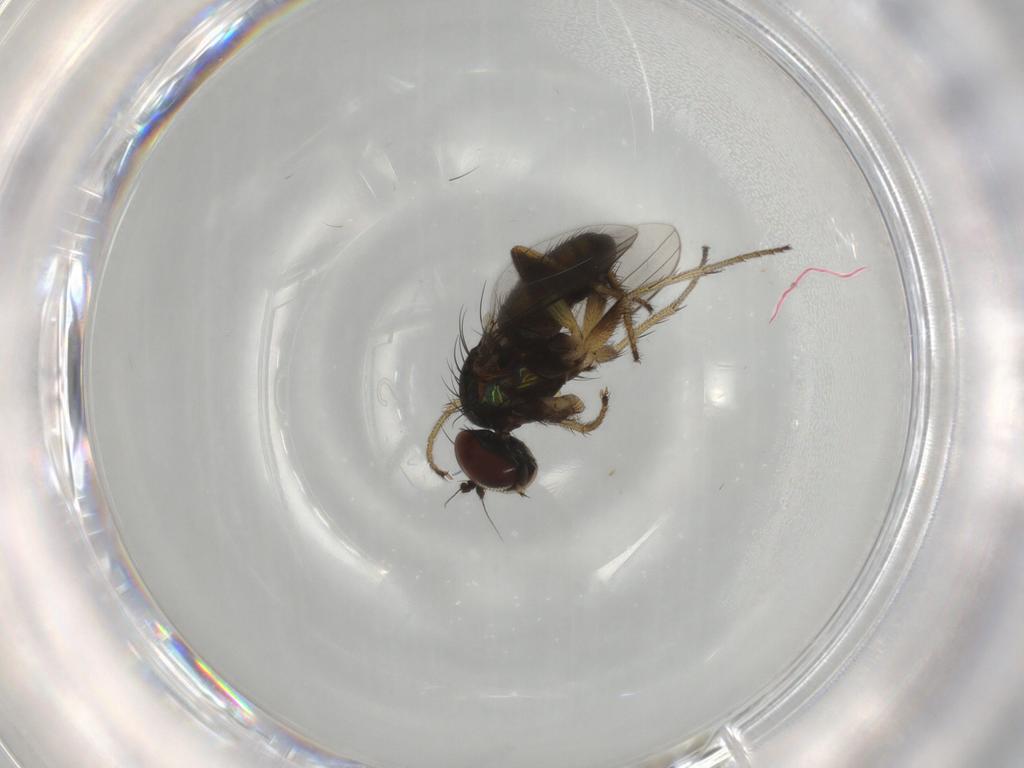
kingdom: Animalia
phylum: Arthropoda
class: Insecta
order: Diptera
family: Dolichopodidae
